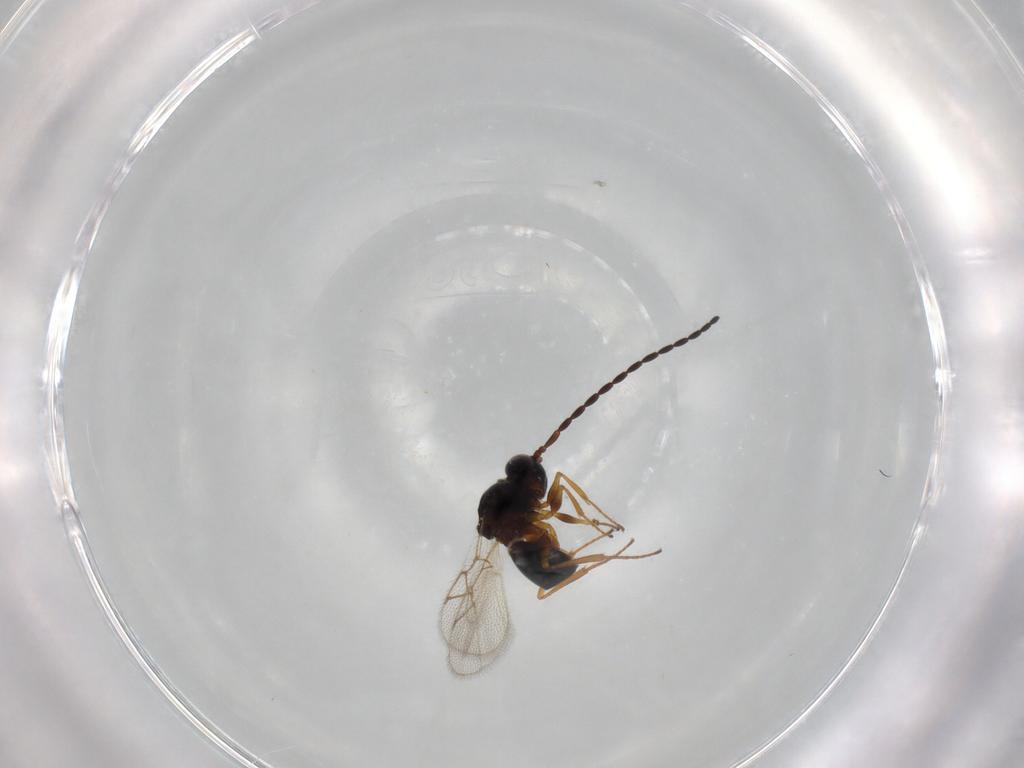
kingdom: Animalia
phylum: Arthropoda
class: Insecta
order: Hymenoptera
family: Figitidae
